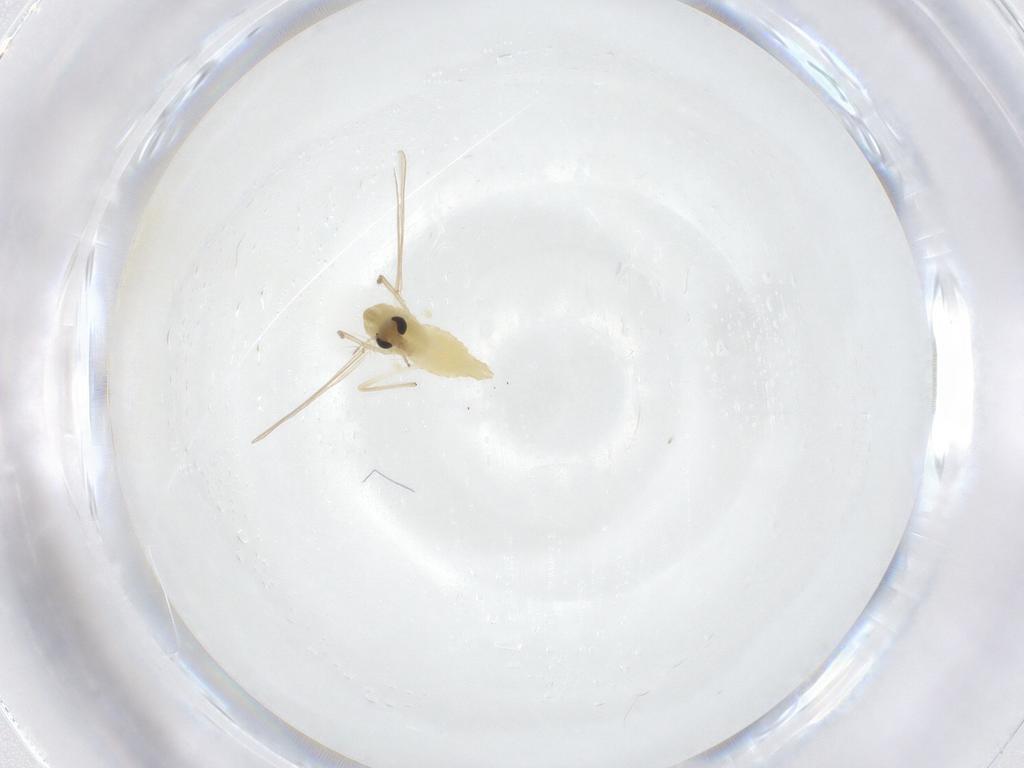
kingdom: Animalia
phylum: Arthropoda
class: Insecta
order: Diptera
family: Chironomidae
